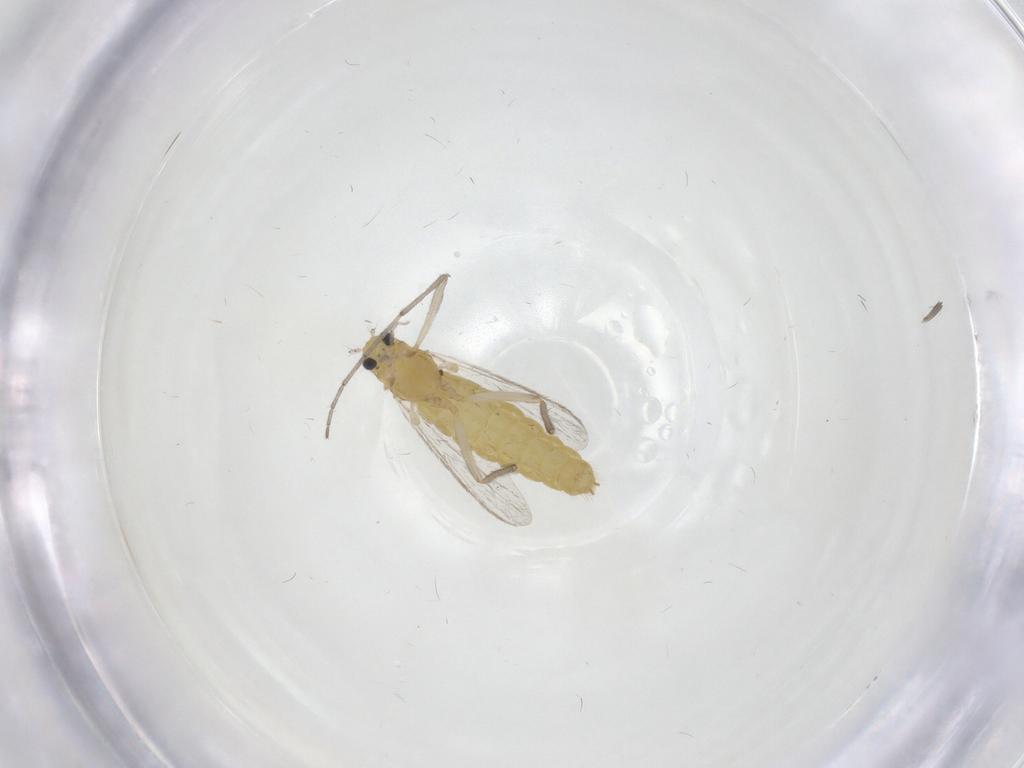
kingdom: Animalia
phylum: Arthropoda
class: Insecta
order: Diptera
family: Chironomidae
